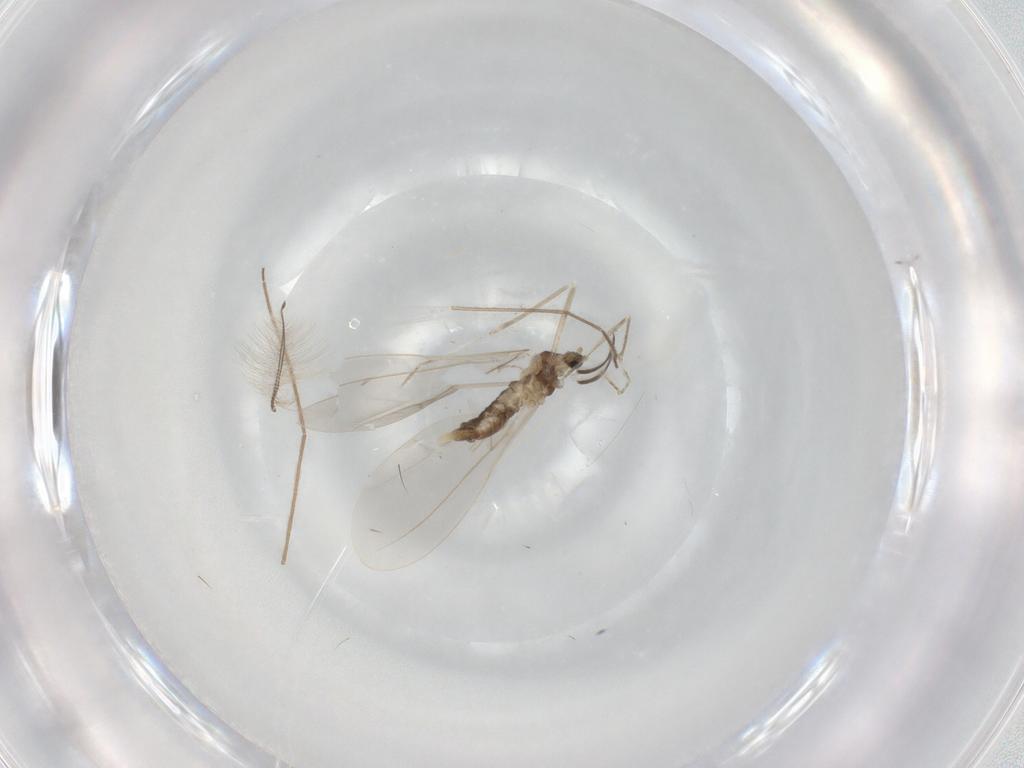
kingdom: Animalia
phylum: Arthropoda
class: Insecta
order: Diptera
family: Cecidomyiidae
